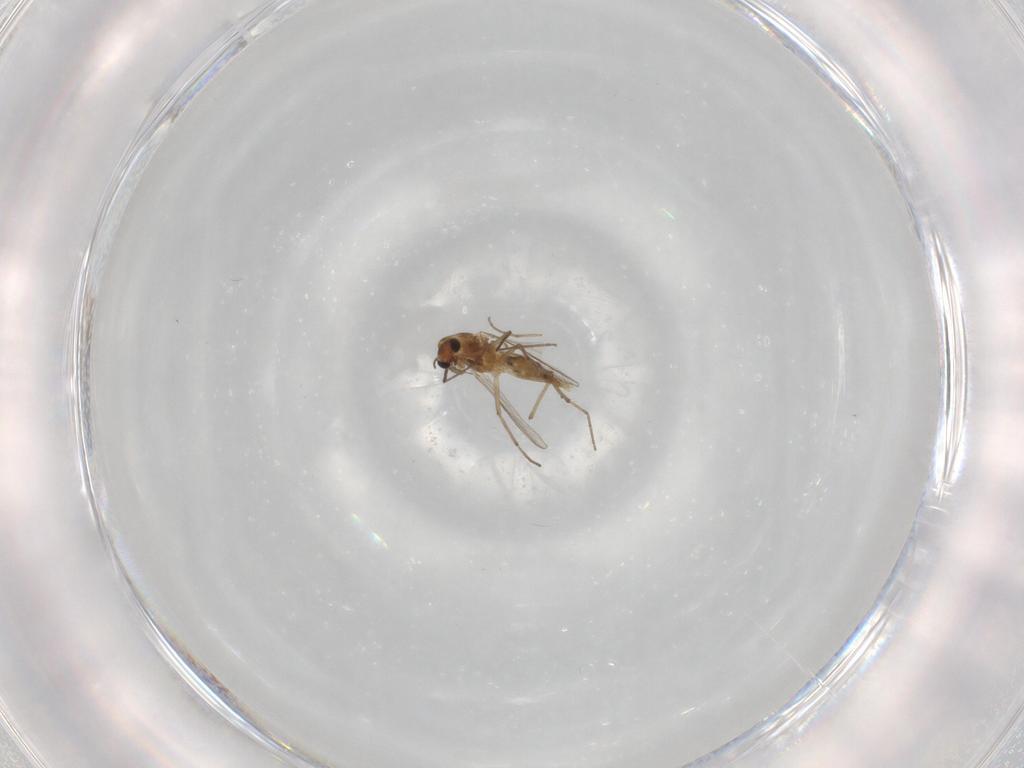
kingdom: Animalia
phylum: Arthropoda
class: Insecta
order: Diptera
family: Chironomidae
